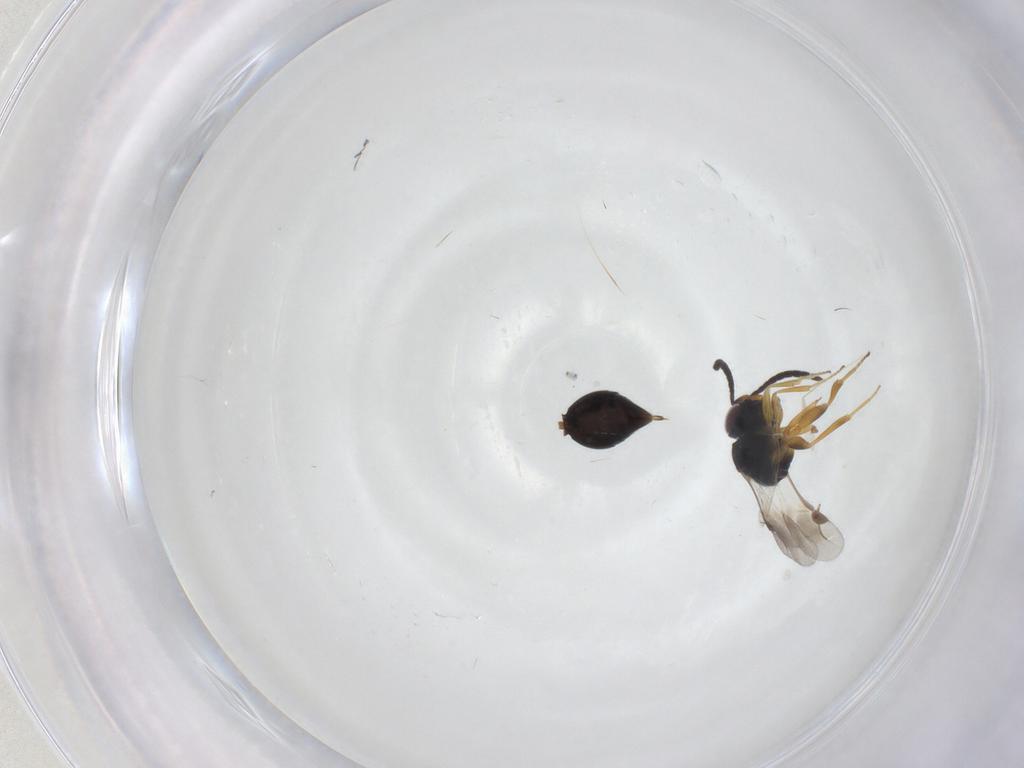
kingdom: Animalia
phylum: Arthropoda
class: Insecta
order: Hymenoptera
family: Megaspilidae
